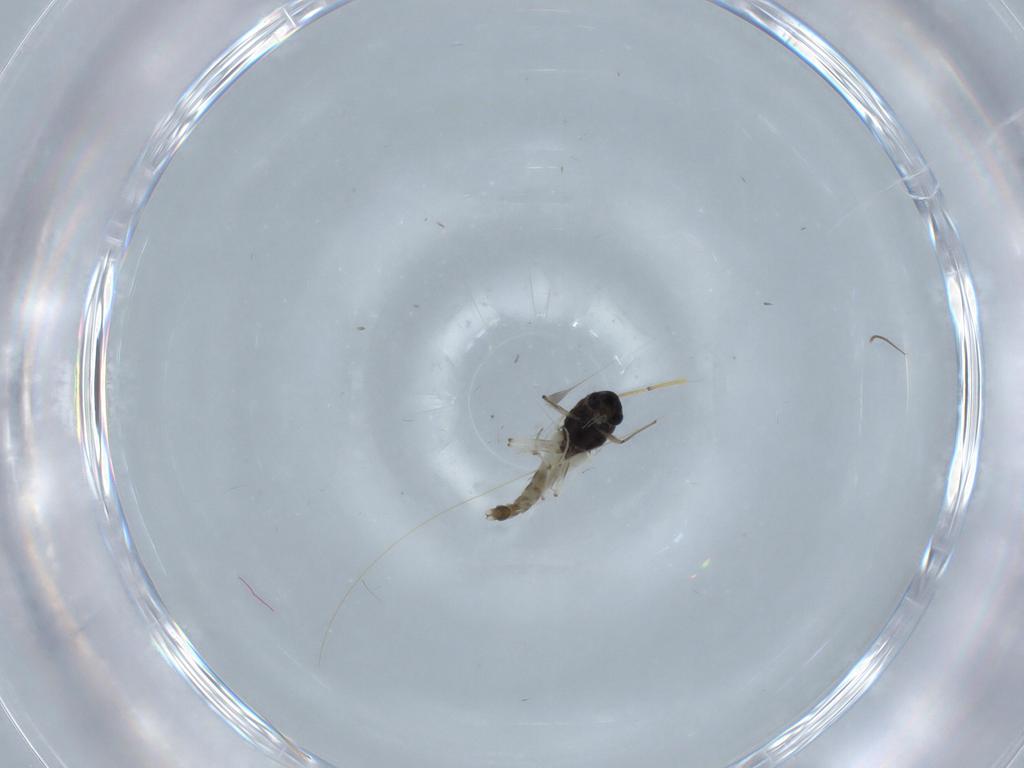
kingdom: Animalia
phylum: Arthropoda
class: Insecta
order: Diptera
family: Chironomidae
